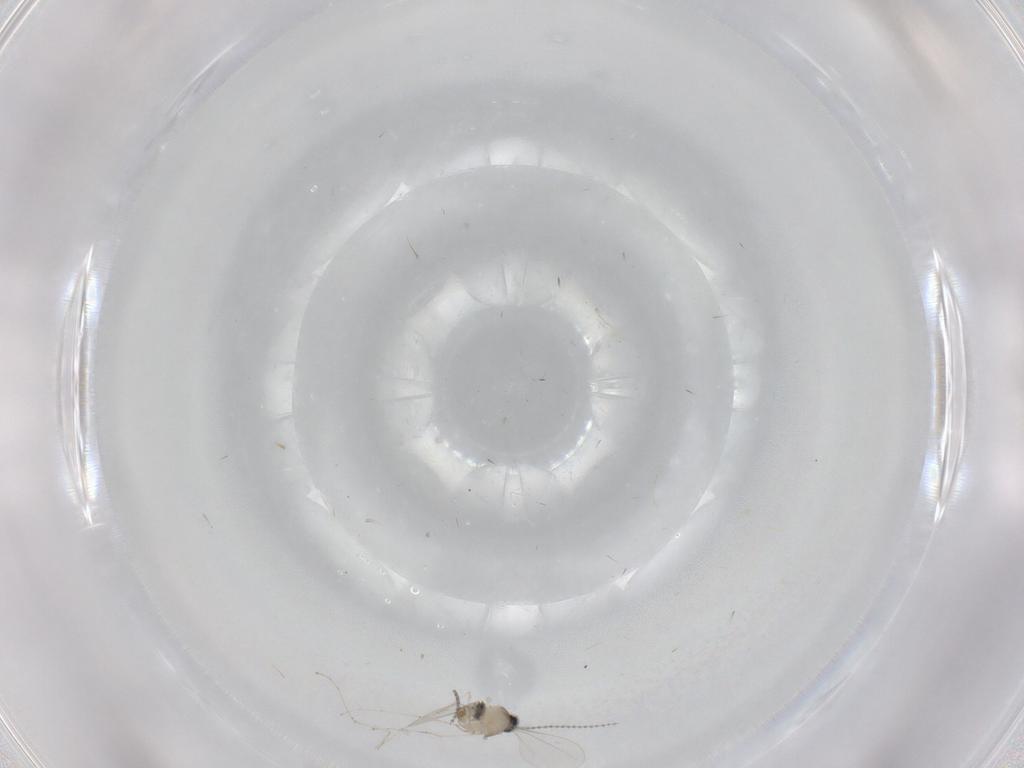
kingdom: Animalia
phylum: Arthropoda
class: Insecta
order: Diptera
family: Cecidomyiidae
